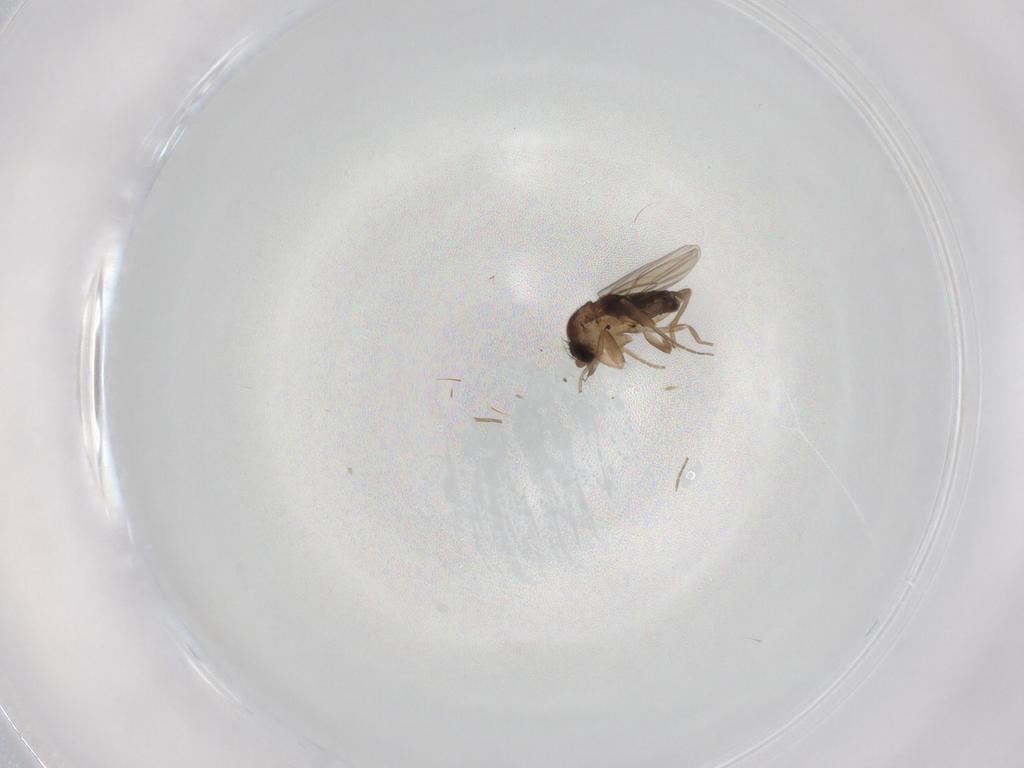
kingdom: Animalia
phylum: Arthropoda
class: Insecta
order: Diptera
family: Phoridae
